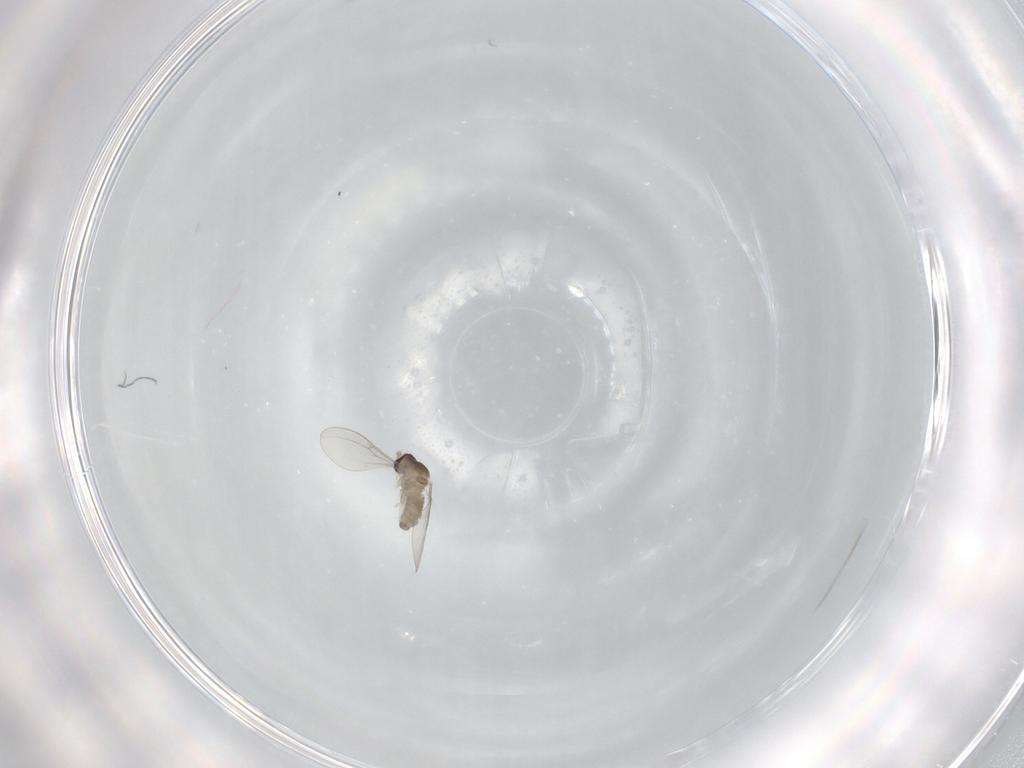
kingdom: Animalia
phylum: Arthropoda
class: Insecta
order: Diptera
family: Cecidomyiidae
